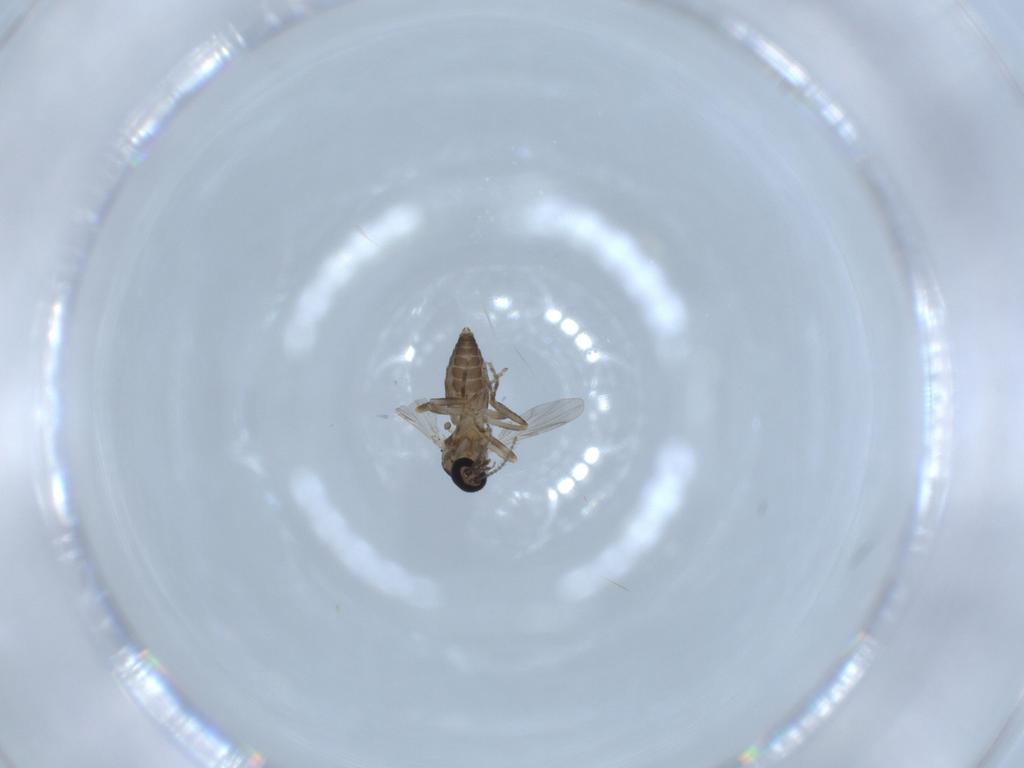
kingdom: Animalia
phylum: Arthropoda
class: Insecta
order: Diptera
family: Ceratopogonidae
